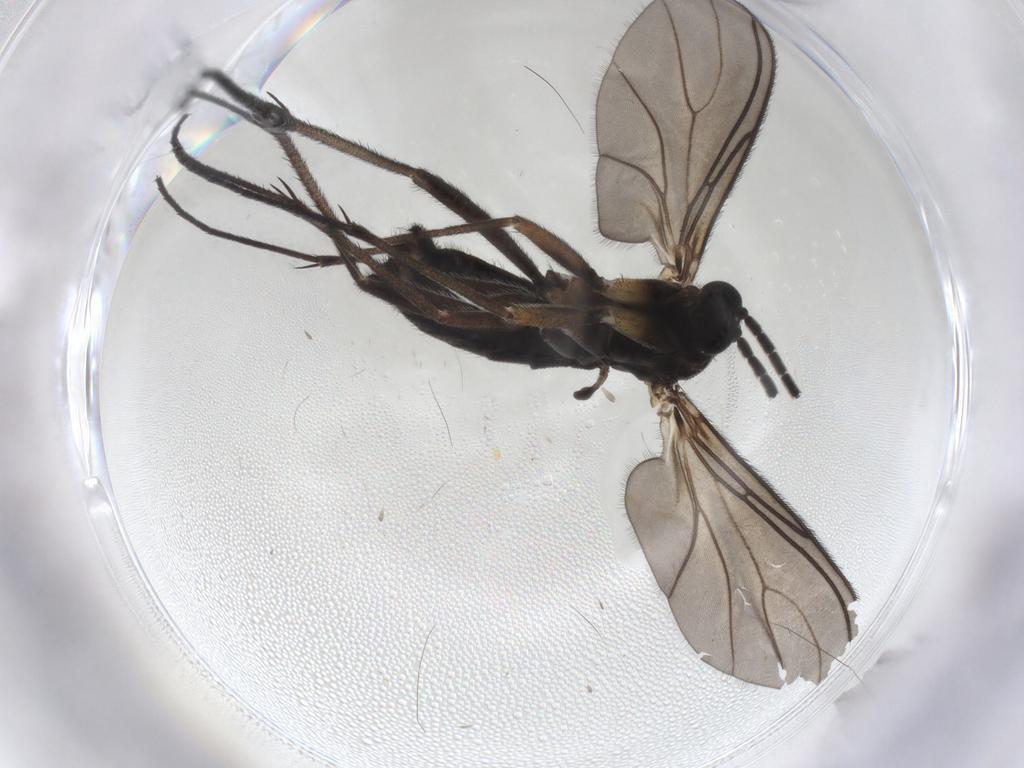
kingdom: Animalia
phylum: Arthropoda
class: Insecta
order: Diptera
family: Sciaridae
